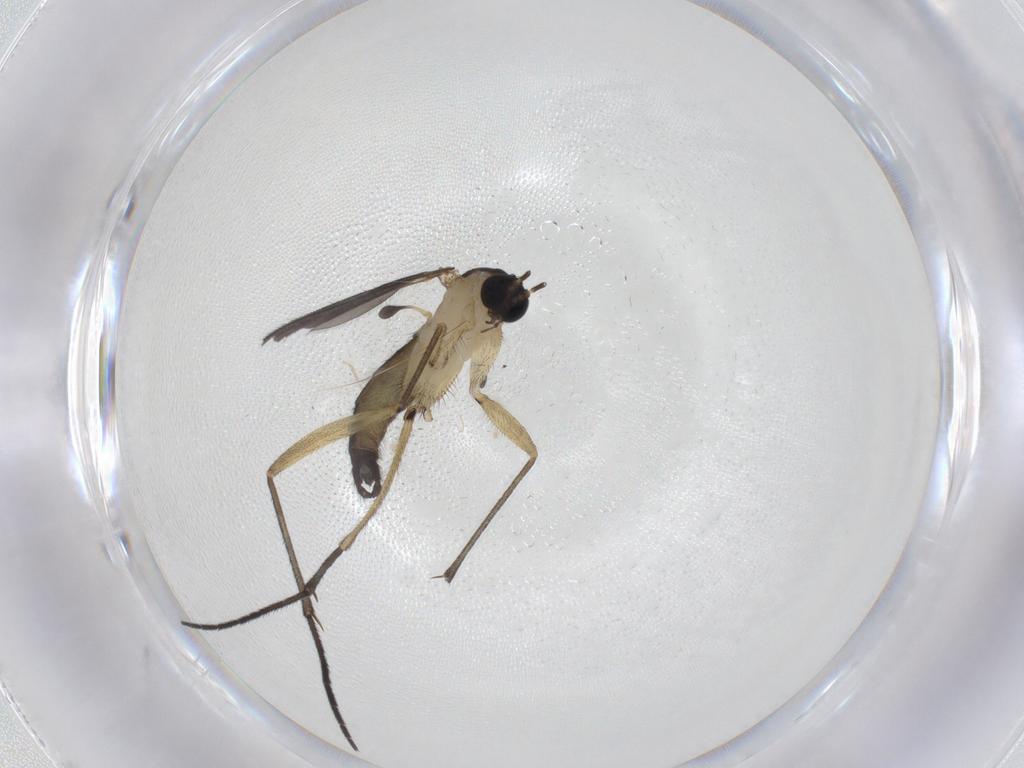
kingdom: Animalia
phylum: Arthropoda
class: Insecta
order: Diptera
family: Sciaridae
